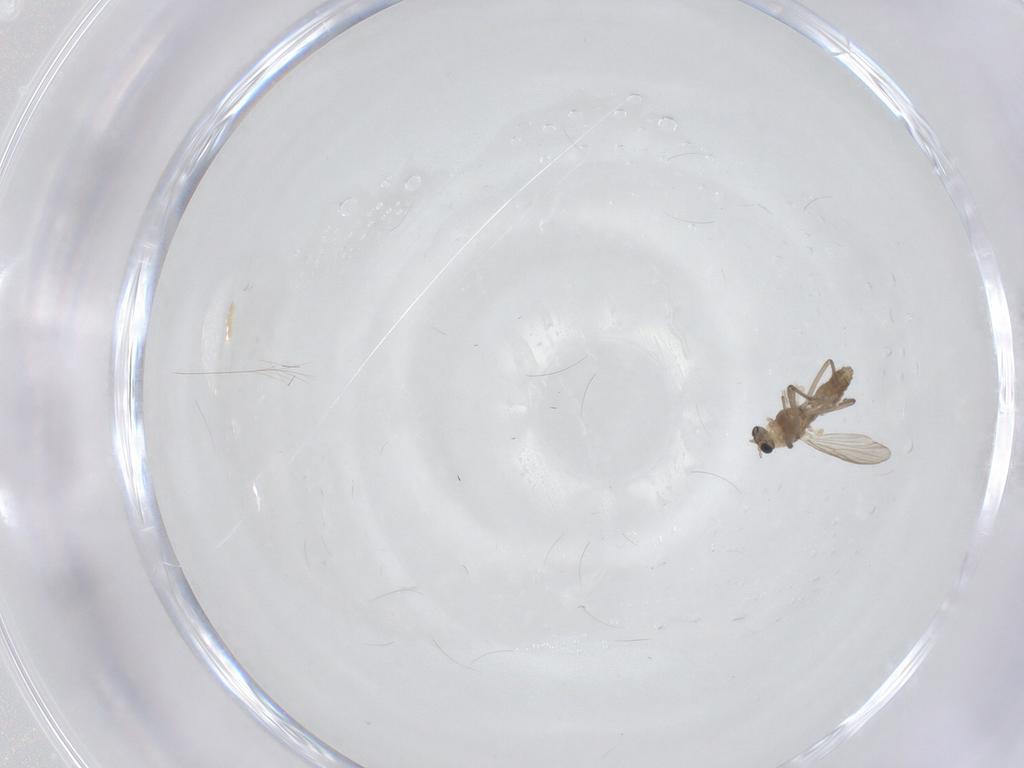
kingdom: Animalia
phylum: Arthropoda
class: Insecta
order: Diptera
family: Chironomidae
